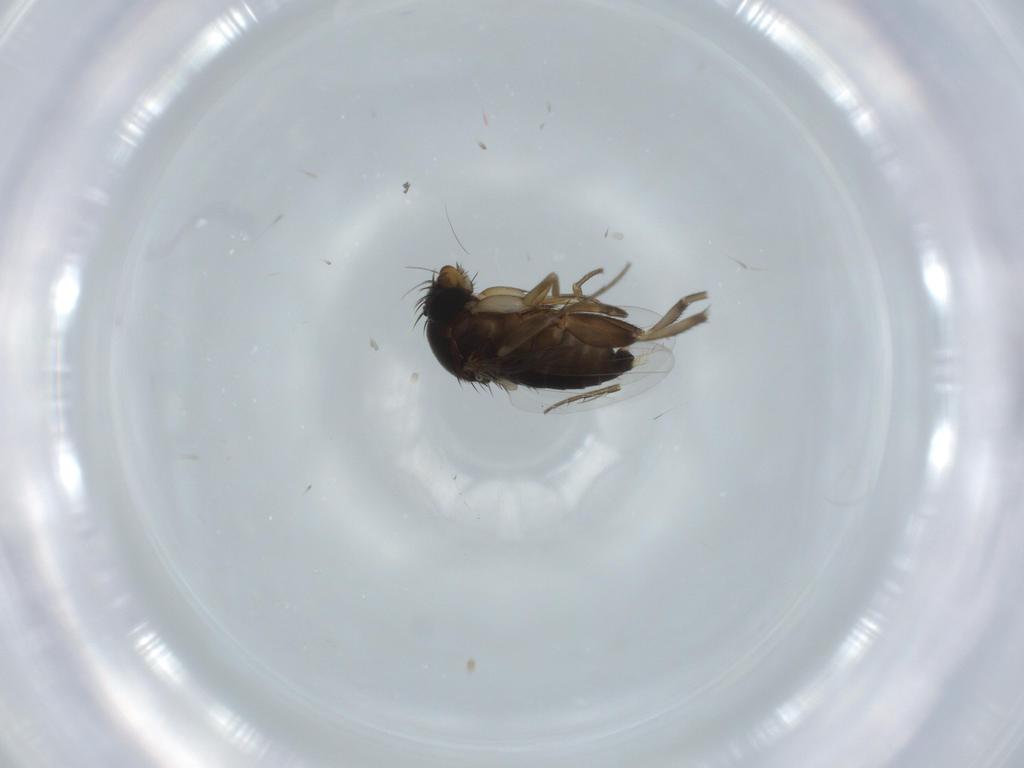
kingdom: Animalia
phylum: Arthropoda
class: Insecta
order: Diptera
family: Phoridae
